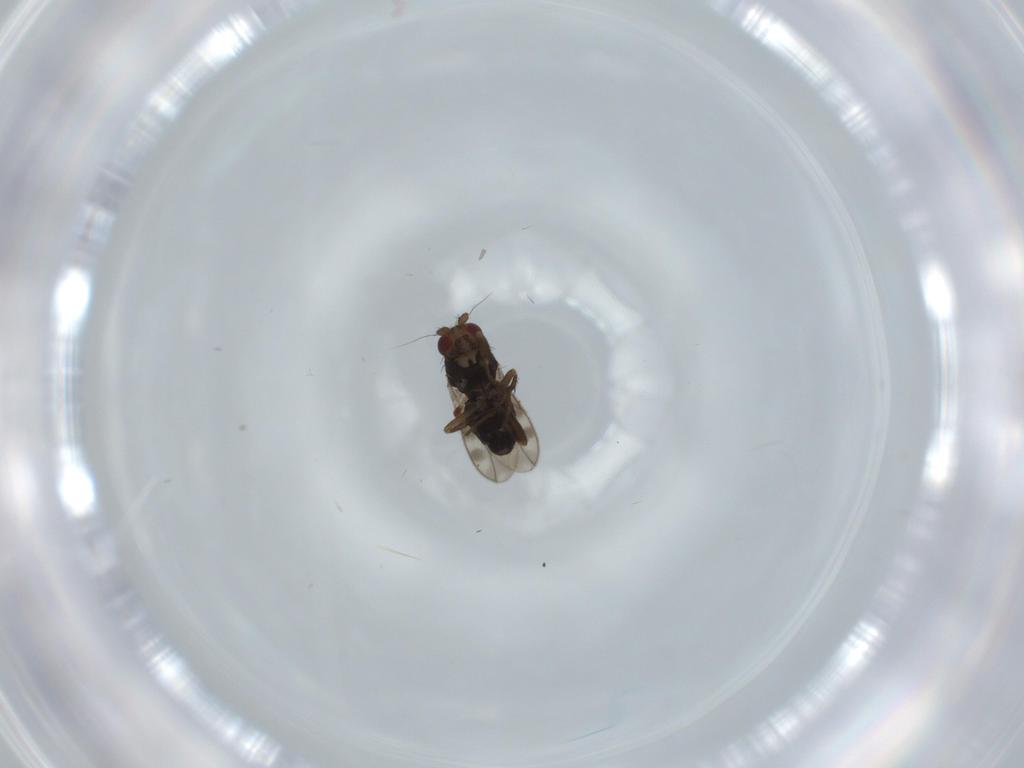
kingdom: Animalia
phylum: Arthropoda
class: Insecta
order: Diptera
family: Sphaeroceridae
